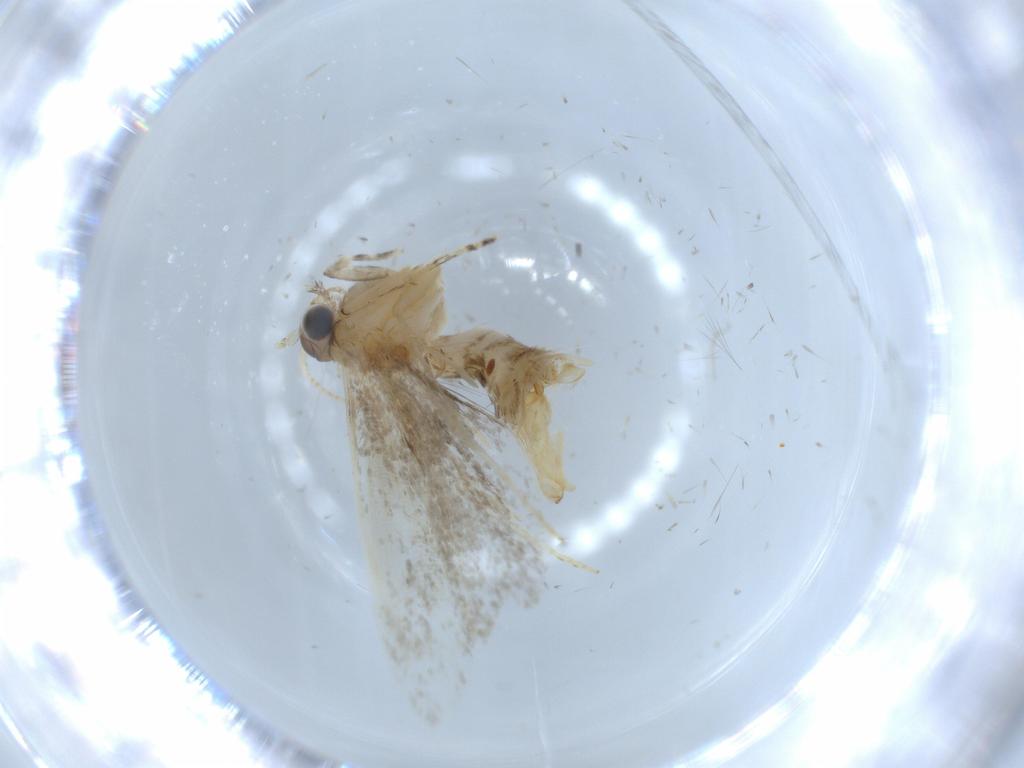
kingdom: Animalia
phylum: Arthropoda
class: Insecta
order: Lepidoptera
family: Tineidae
